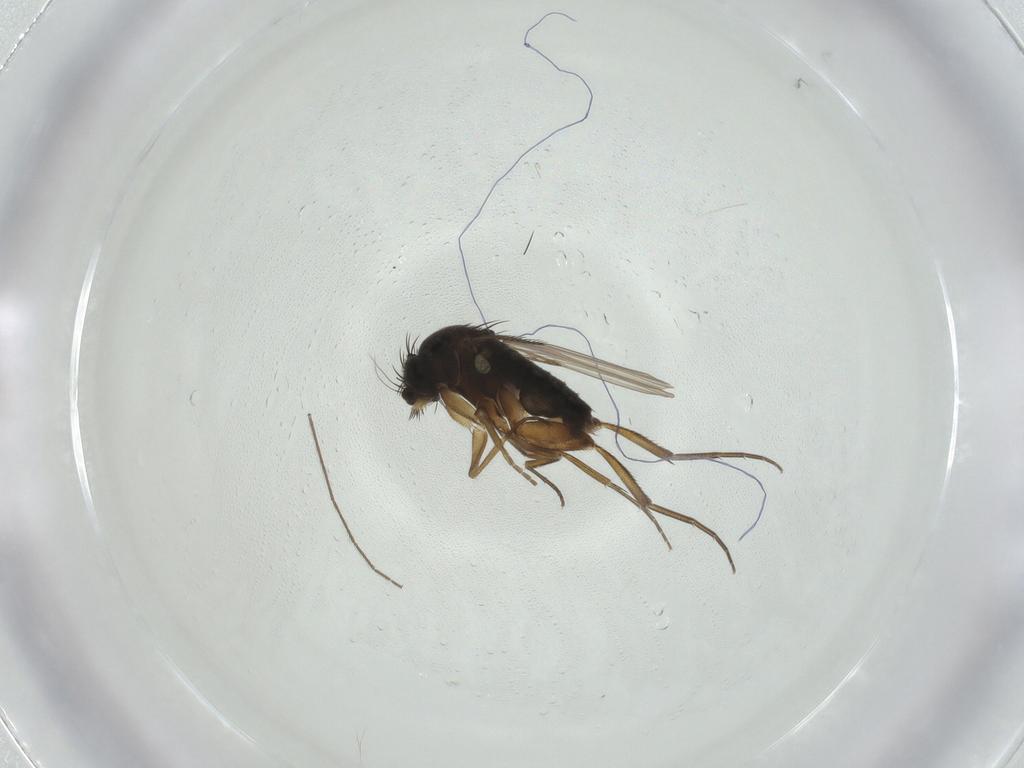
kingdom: Animalia
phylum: Arthropoda
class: Insecta
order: Diptera
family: Phoridae
